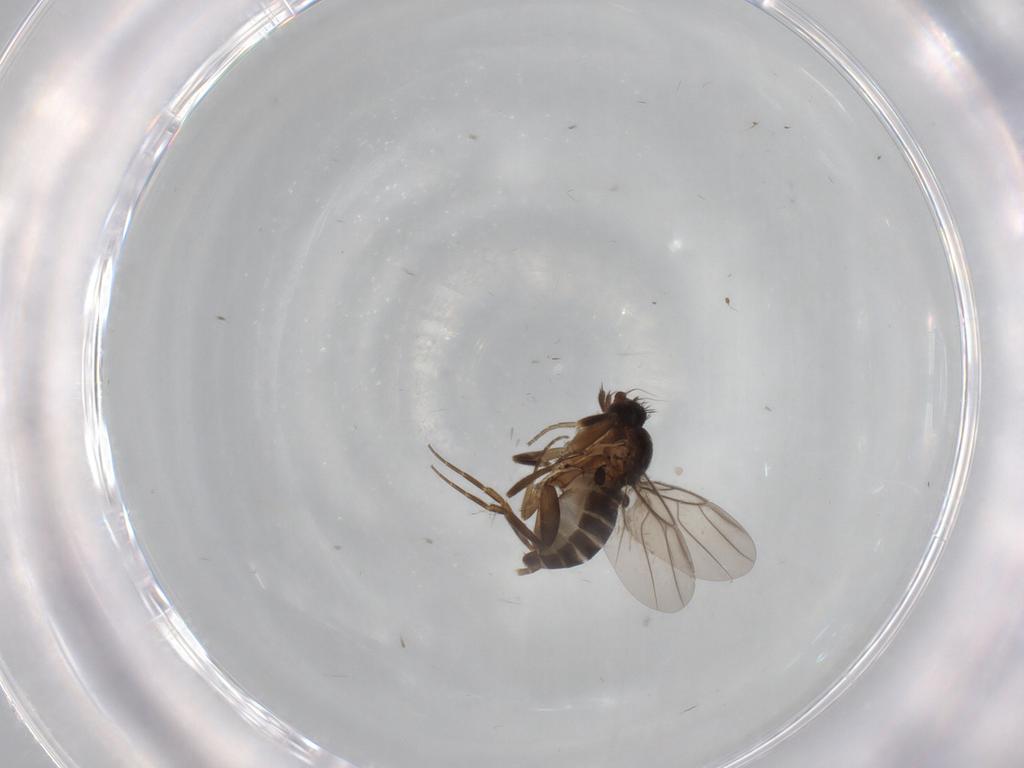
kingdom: Animalia
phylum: Arthropoda
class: Insecta
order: Diptera
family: Phoridae
